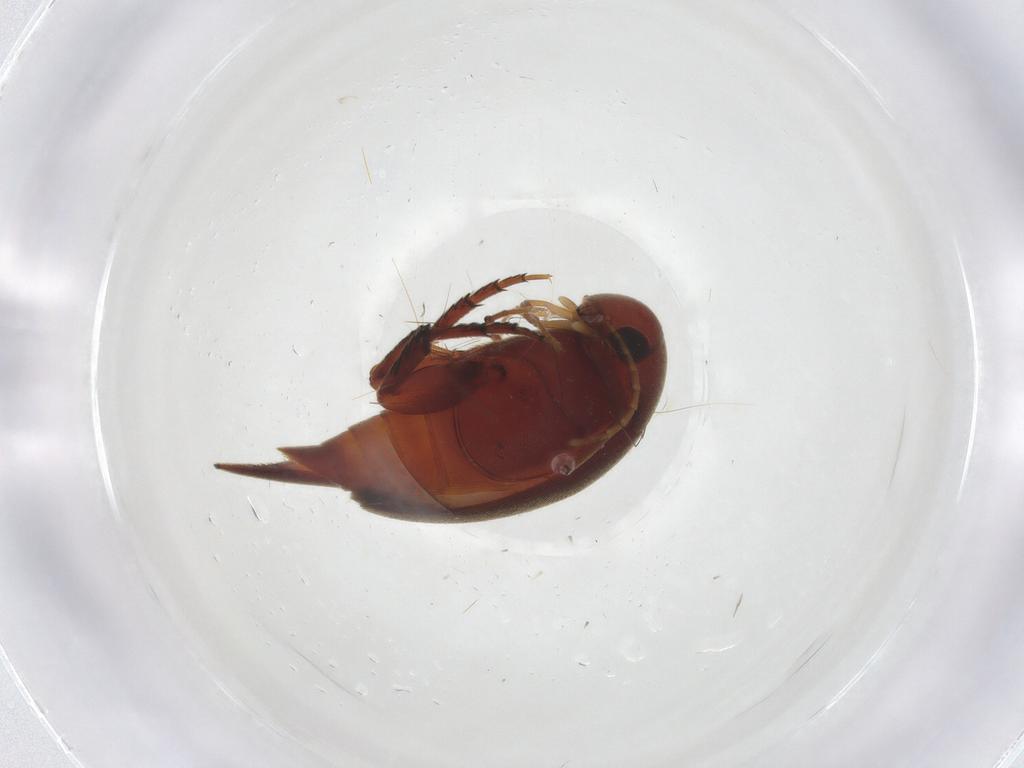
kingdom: Animalia
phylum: Arthropoda
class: Insecta
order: Coleoptera
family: Mordellidae
